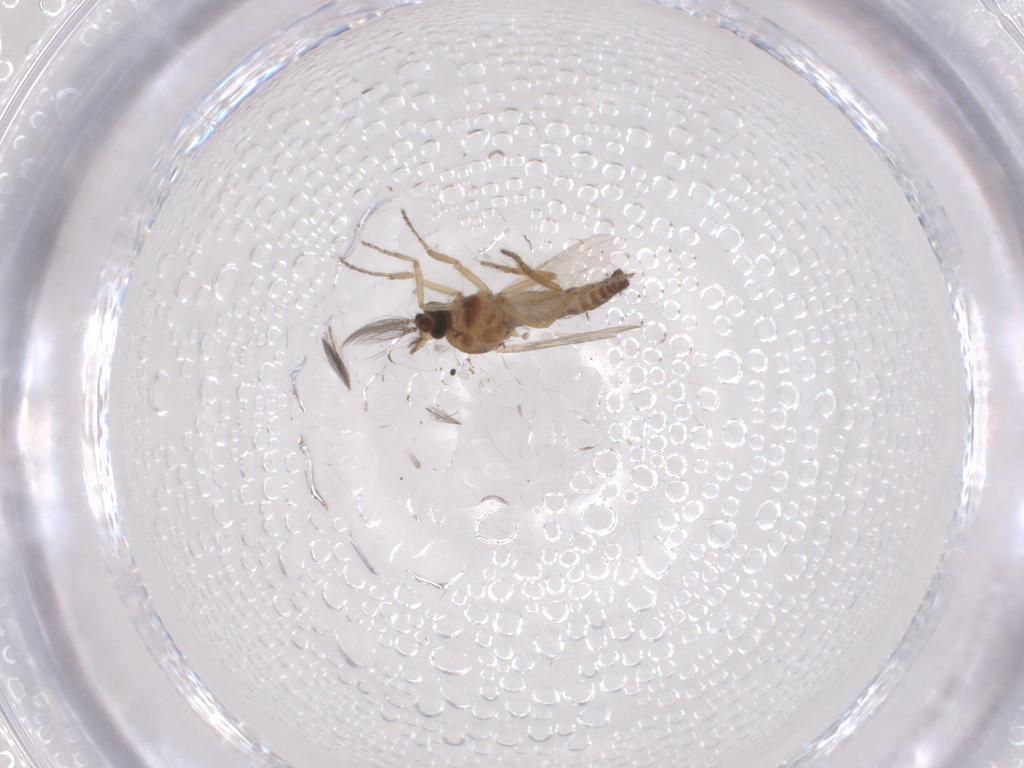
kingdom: Animalia
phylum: Arthropoda
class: Insecta
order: Diptera
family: Ceratopogonidae
